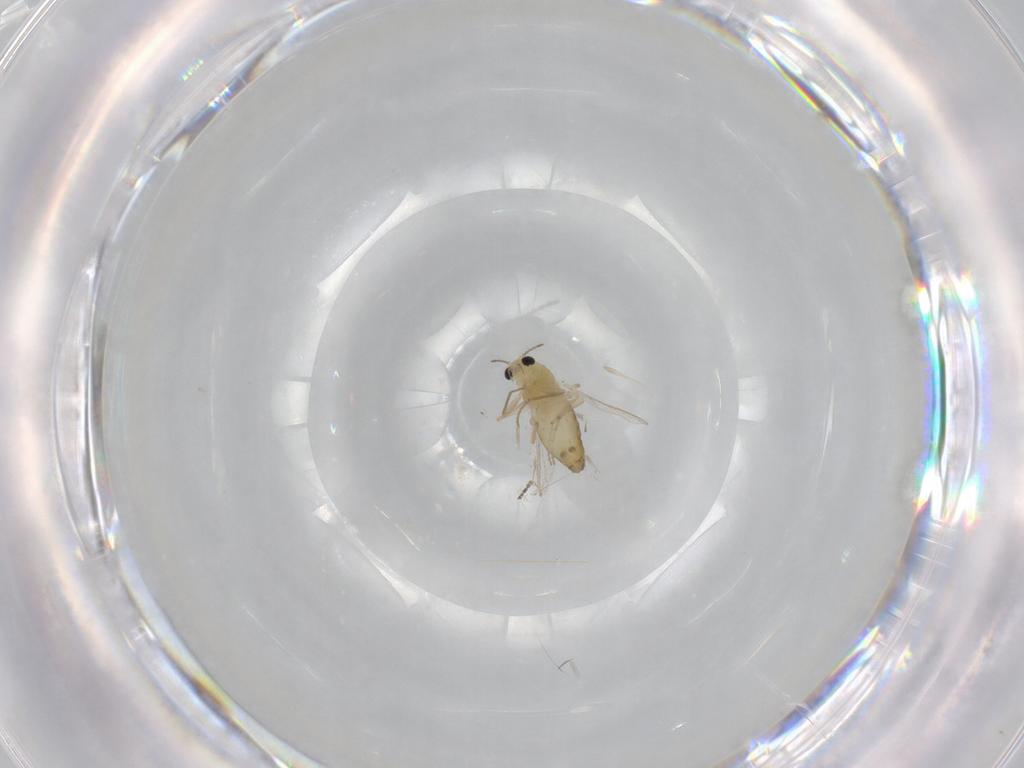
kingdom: Animalia
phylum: Arthropoda
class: Insecta
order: Diptera
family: Chironomidae
